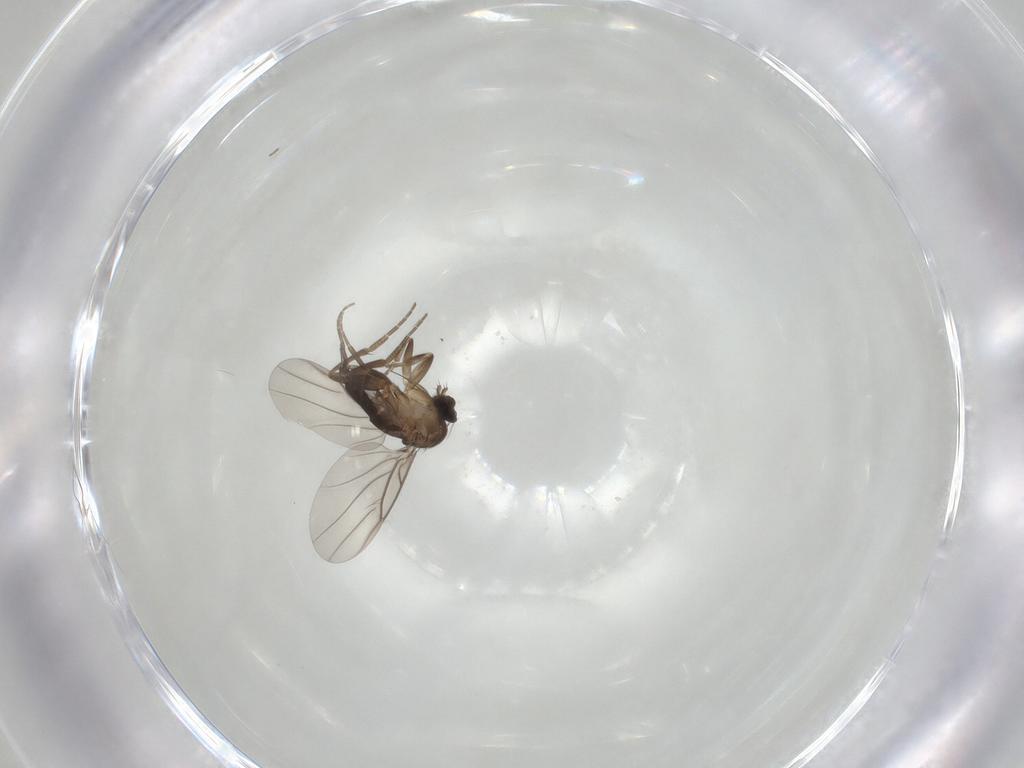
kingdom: Animalia
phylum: Arthropoda
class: Insecta
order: Diptera
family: Phoridae
